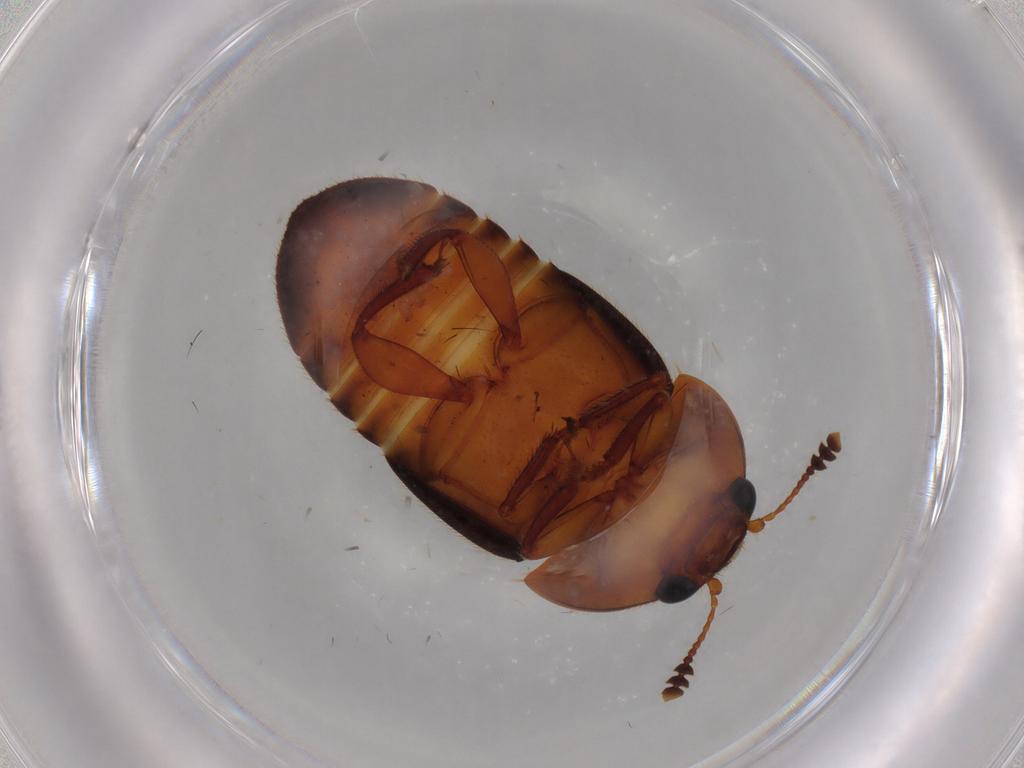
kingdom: Animalia
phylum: Arthropoda
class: Insecta
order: Coleoptera
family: Nitidulidae
